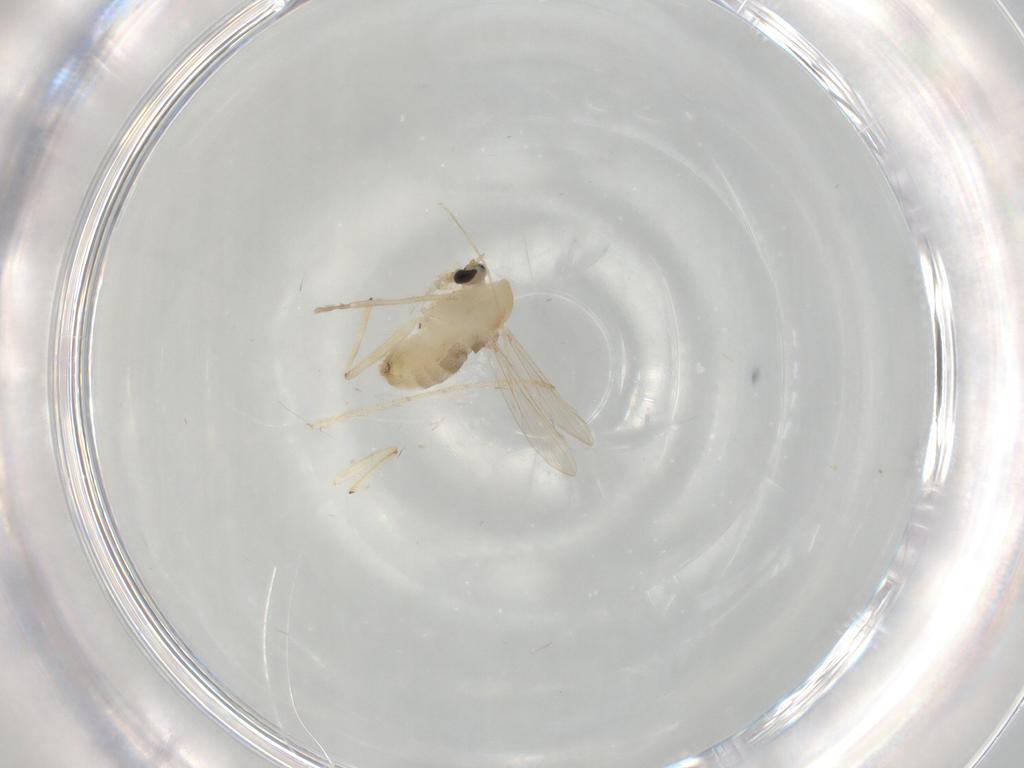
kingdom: Animalia
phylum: Arthropoda
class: Insecta
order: Diptera
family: Chironomidae
